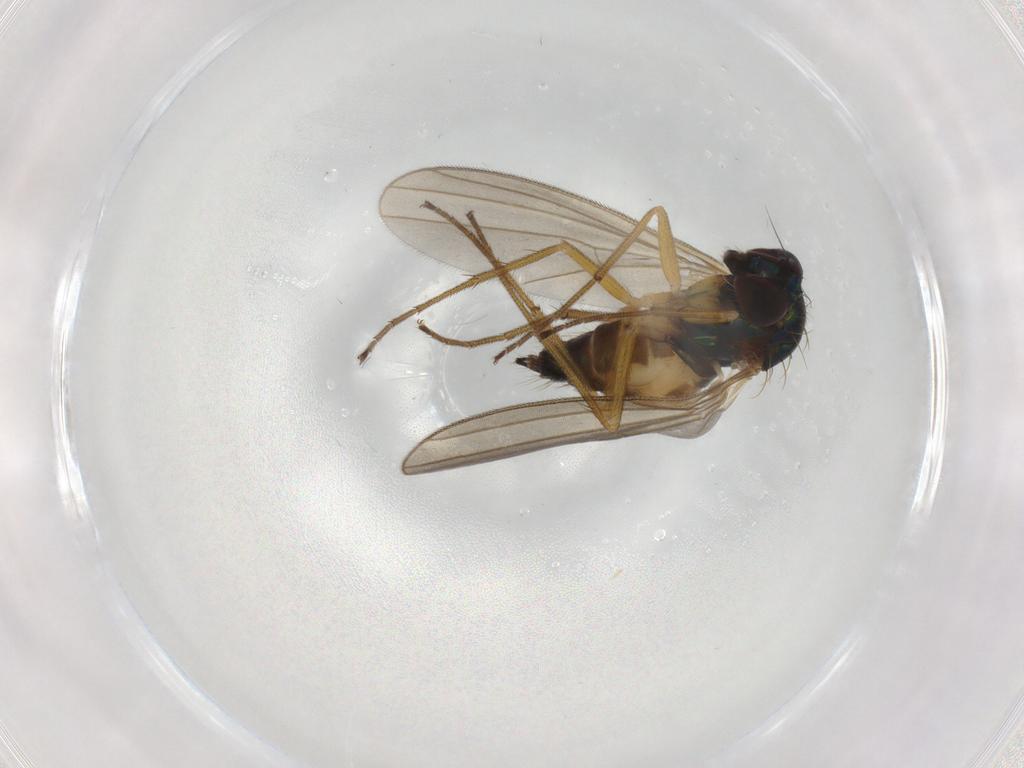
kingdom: Animalia
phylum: Arthropoda
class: Insecta
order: Diptera
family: Dolichopodidae
